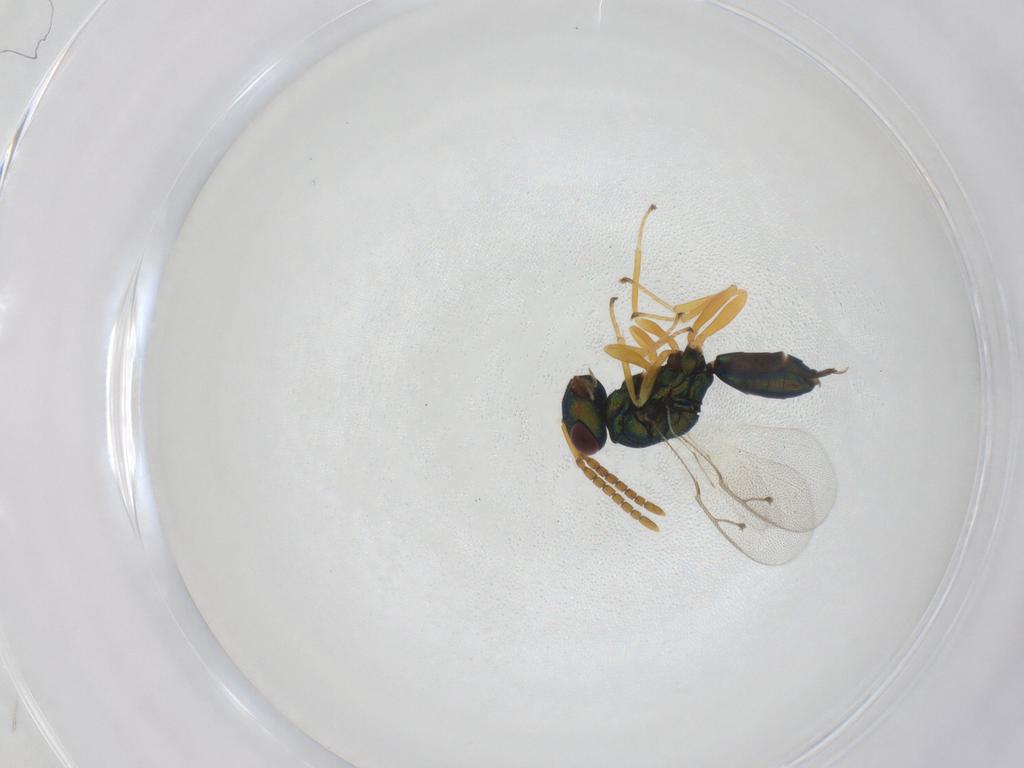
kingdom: Animalia
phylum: Arthropoda
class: Insecta
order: Hymenoptera
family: Pteromalidae
